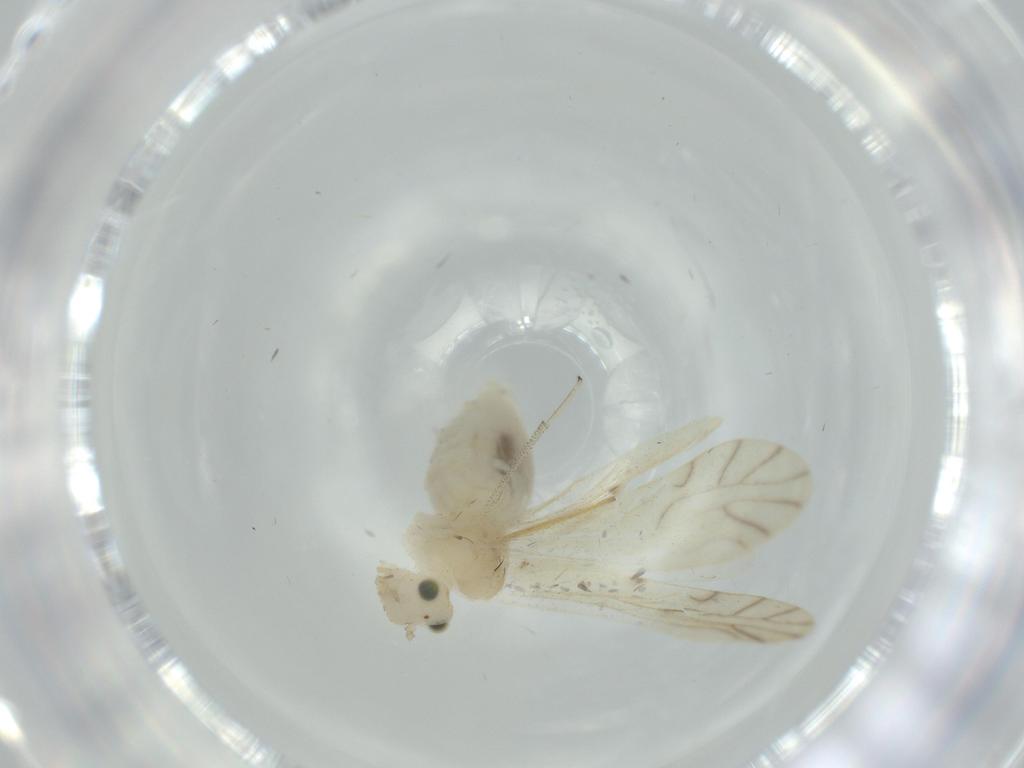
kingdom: Animalia
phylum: Arthropoda
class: Insecta
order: Psocodea
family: Caeciliusidae
